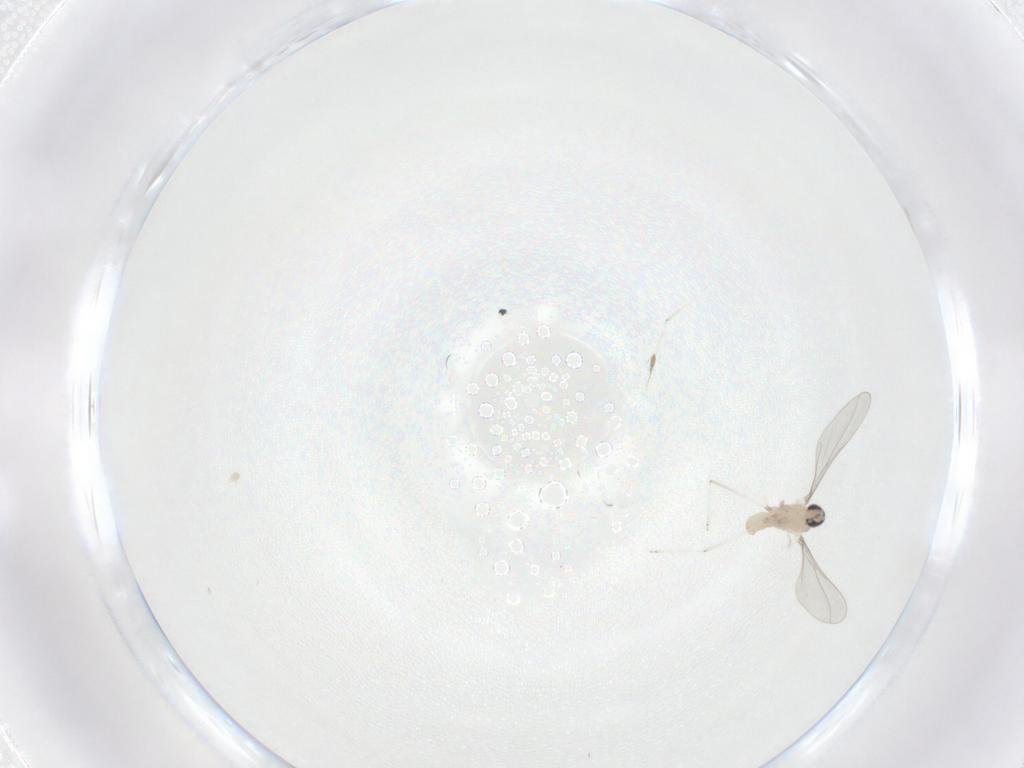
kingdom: Animalia
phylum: Arthropoda
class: Insecta
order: Diptera
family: Cecidomyiidae
